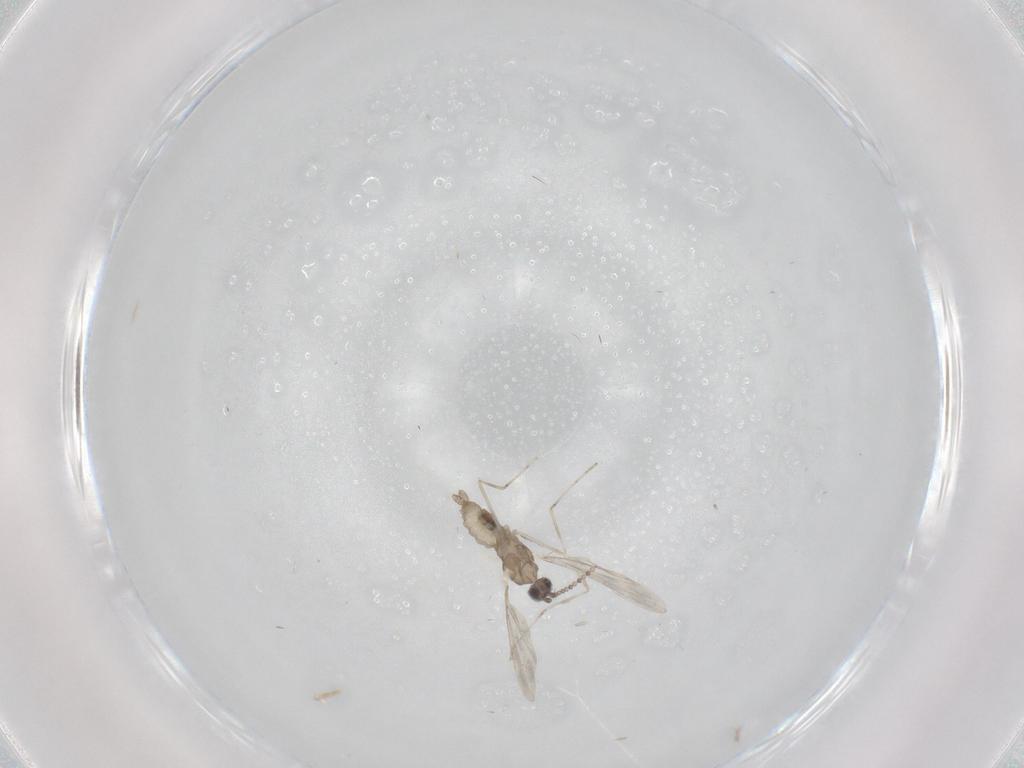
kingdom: Animalia
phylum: Arthropoda
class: Insecta
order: Diptera
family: Cecidomyiidae
